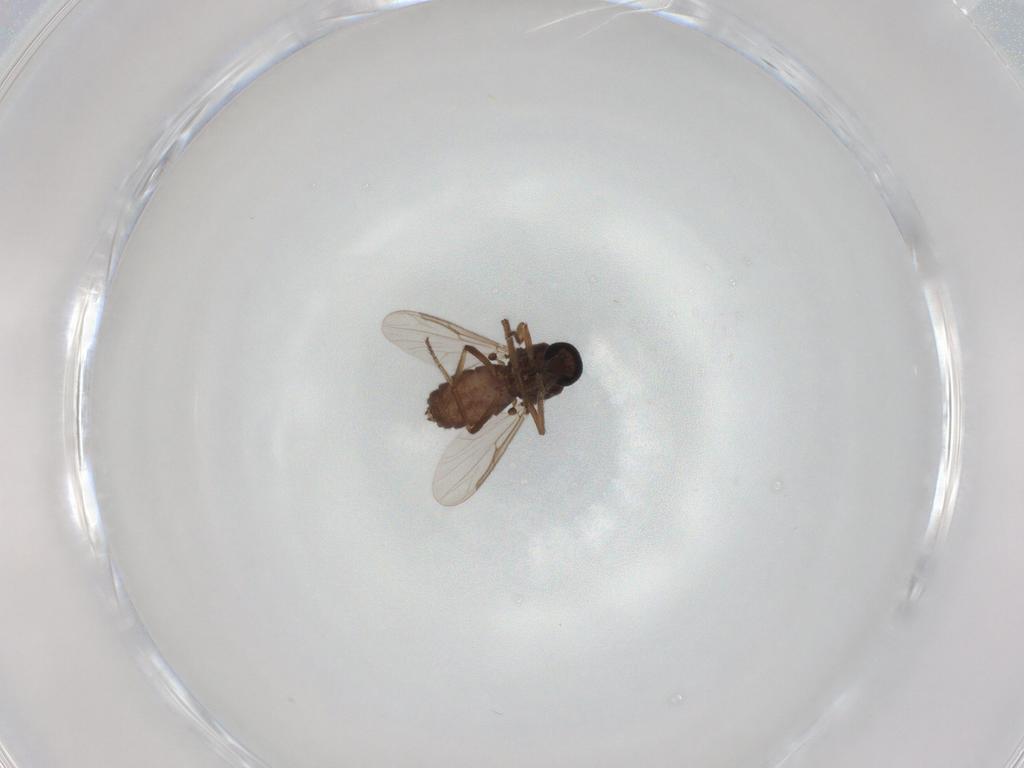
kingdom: Animalia
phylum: Arthropoda
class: Insecta
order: Diptera
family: Ceratopogonidae
